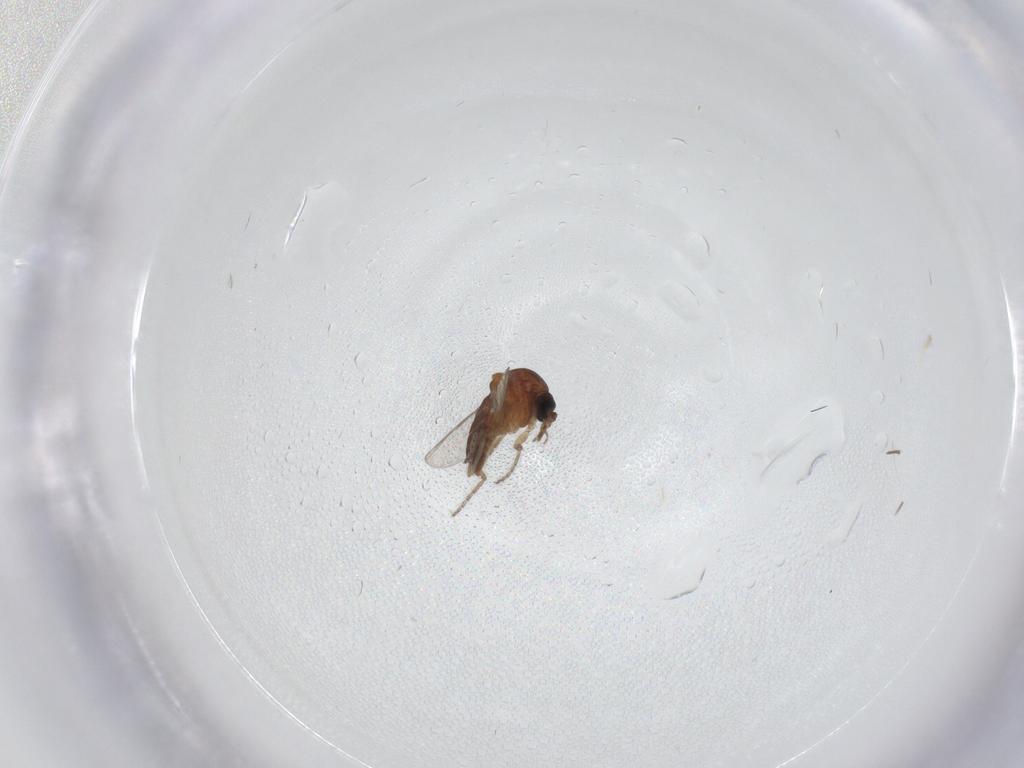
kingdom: Animalia
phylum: Arthropoda
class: Insecta
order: Diptera
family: Ceratopogonidae
